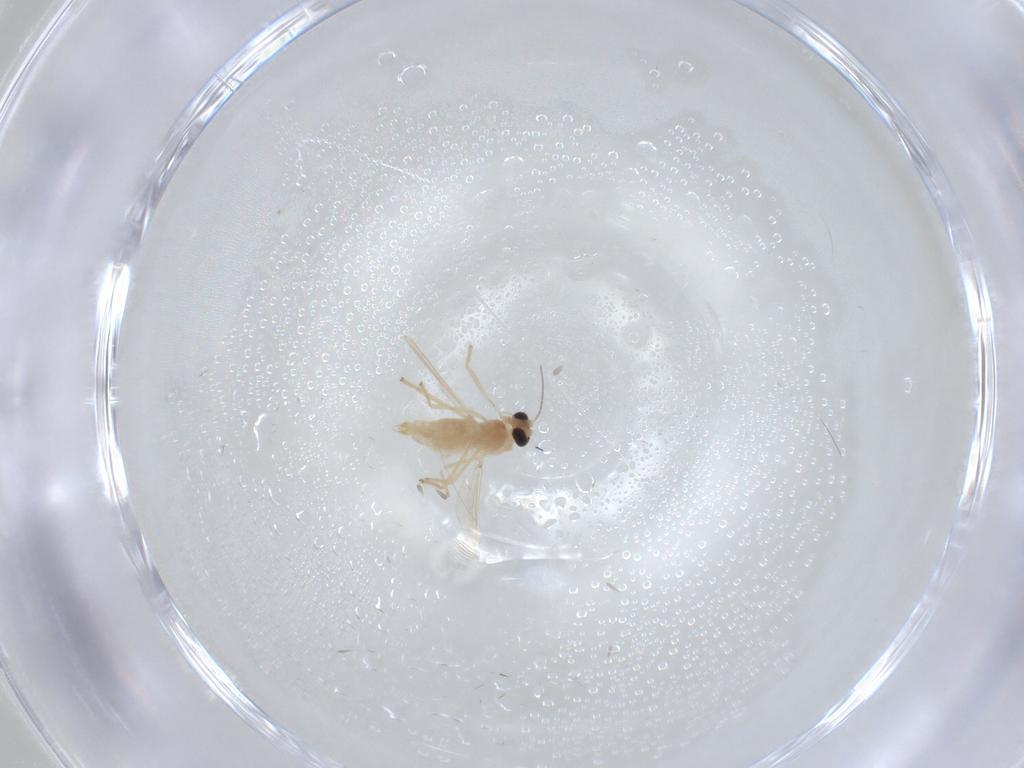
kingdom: Animalia
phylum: Arthropoda
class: Insecta
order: Diptera
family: Chironomidae
